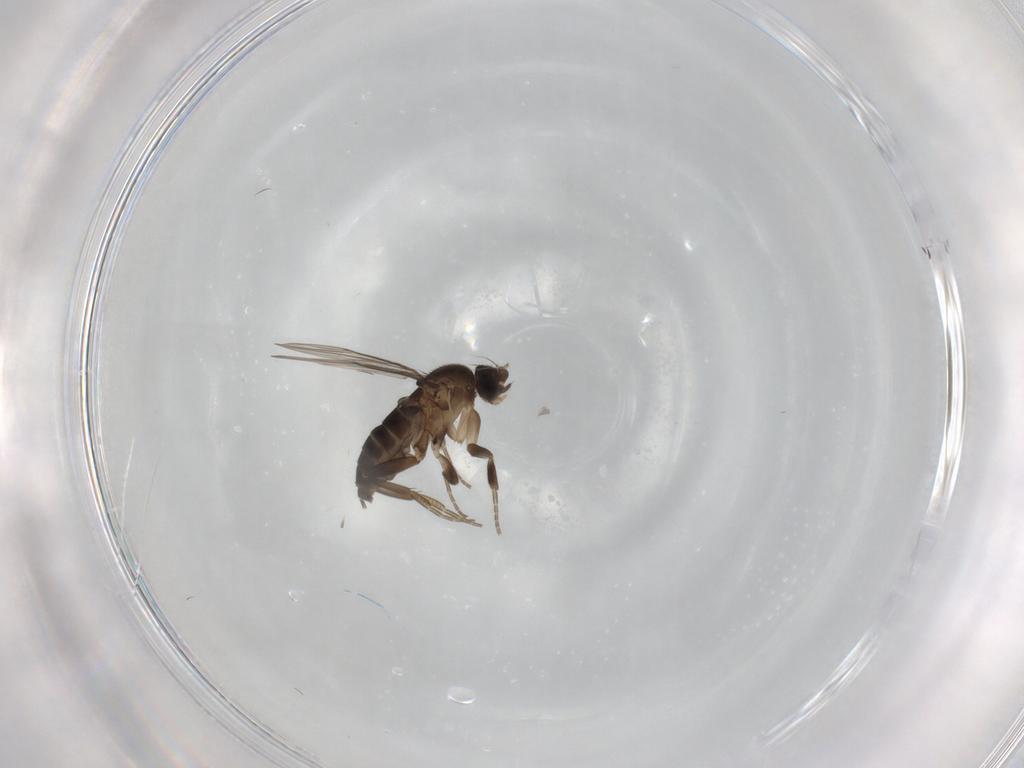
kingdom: Animalia
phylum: Arthropoda
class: Insecta
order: Diptera
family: Phoridae
